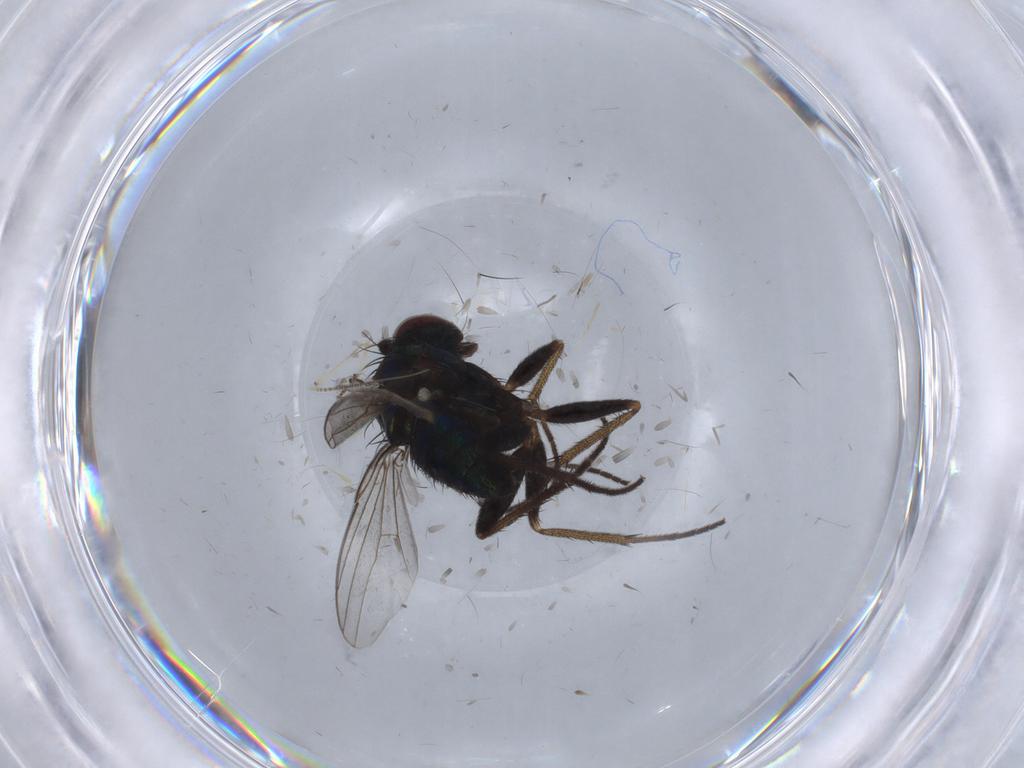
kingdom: Animalia
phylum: Arthropoda
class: Insecta
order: Diptera
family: Dolichopodidae
